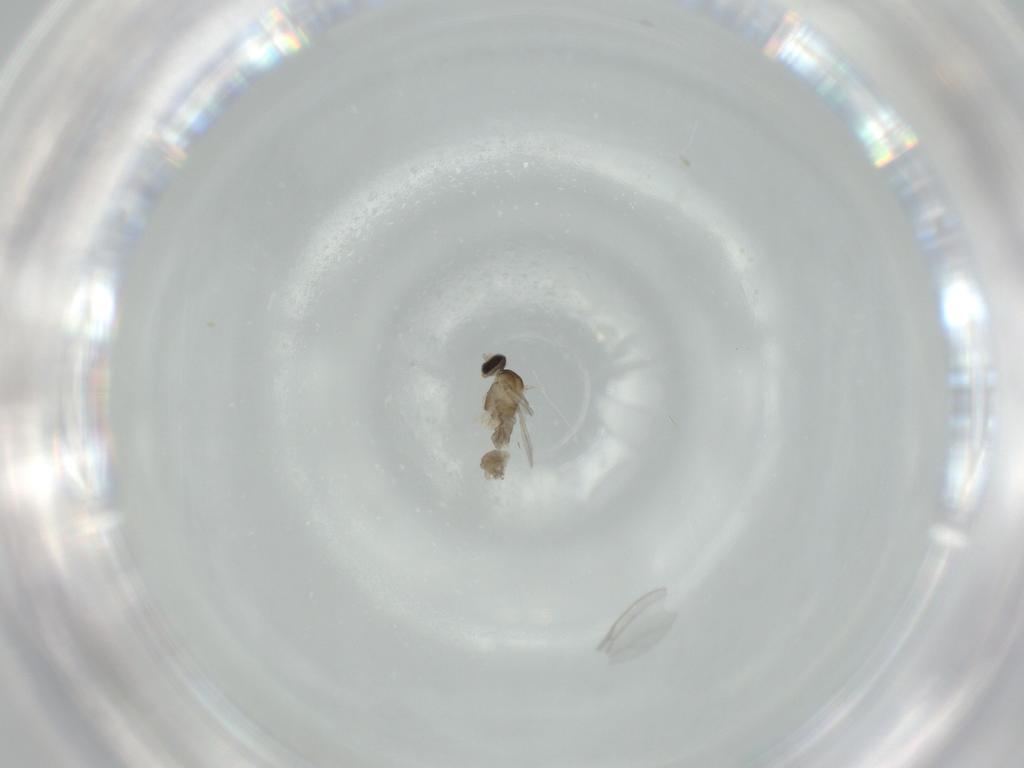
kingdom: Animalia
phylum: Arthropoda
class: Insecta
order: Diptera
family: Cecidomyiidae
